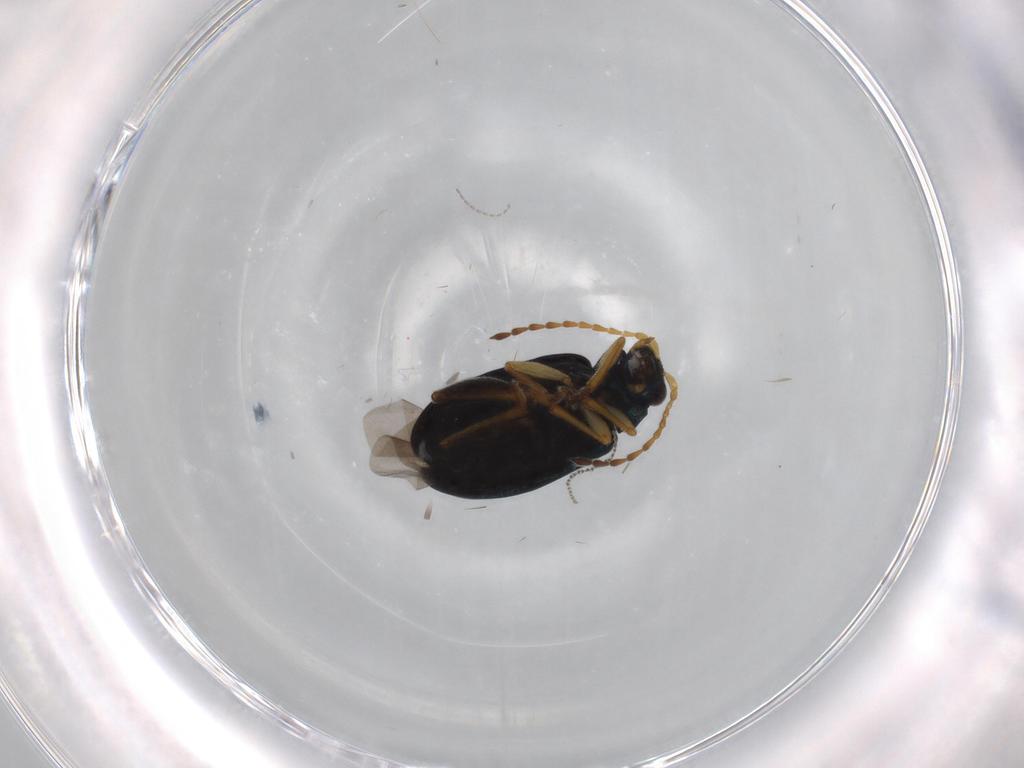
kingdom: Animalia
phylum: Arthropoda
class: Insecta
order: Coleoptera
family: Chrysomelidae
